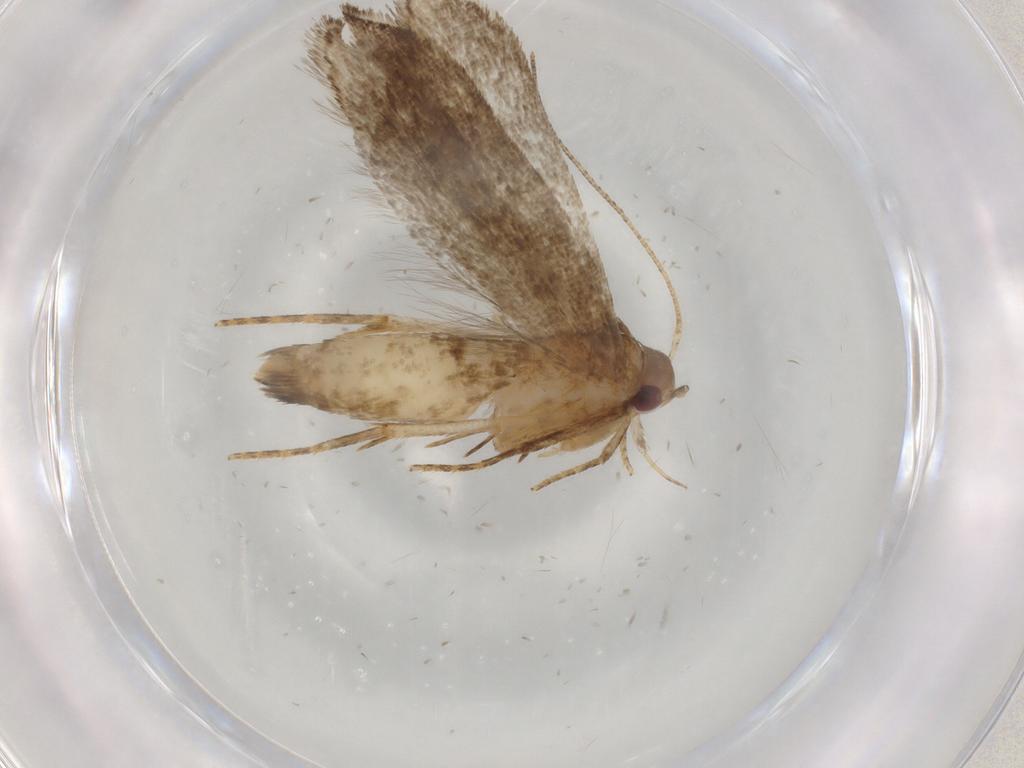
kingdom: Animalia
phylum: Arthropoda
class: Insecta
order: Lepidoptera
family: Gelechiidae
